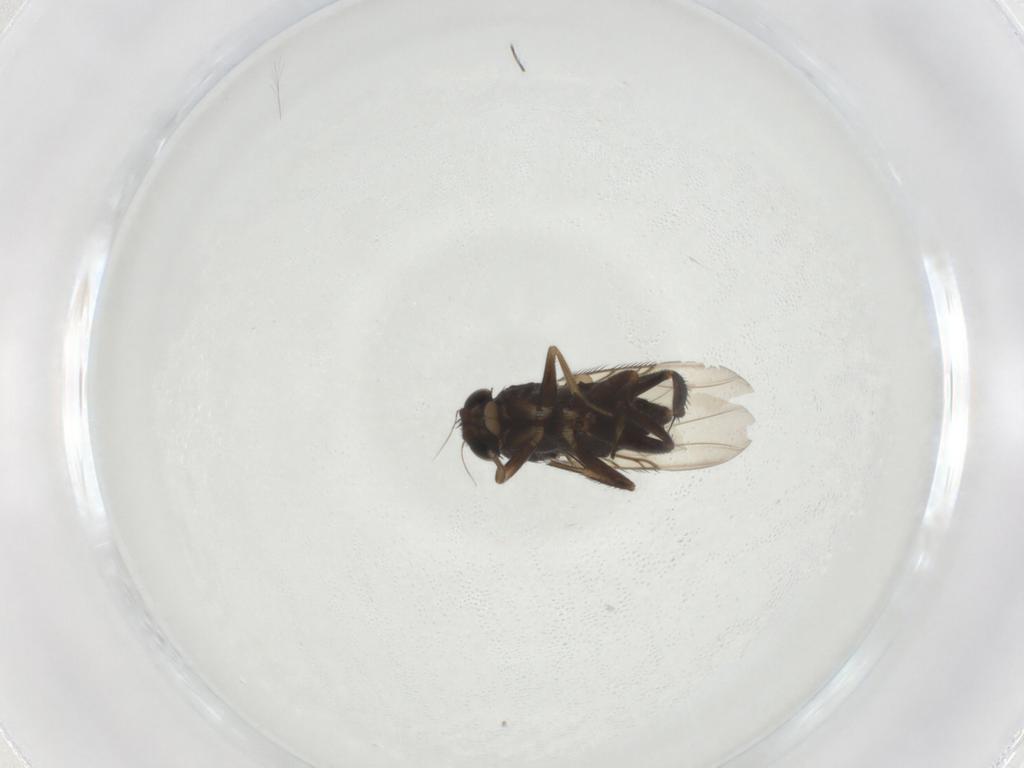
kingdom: Animalia
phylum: Arthropoda
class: Insecta
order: Diptera
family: Phoridae
